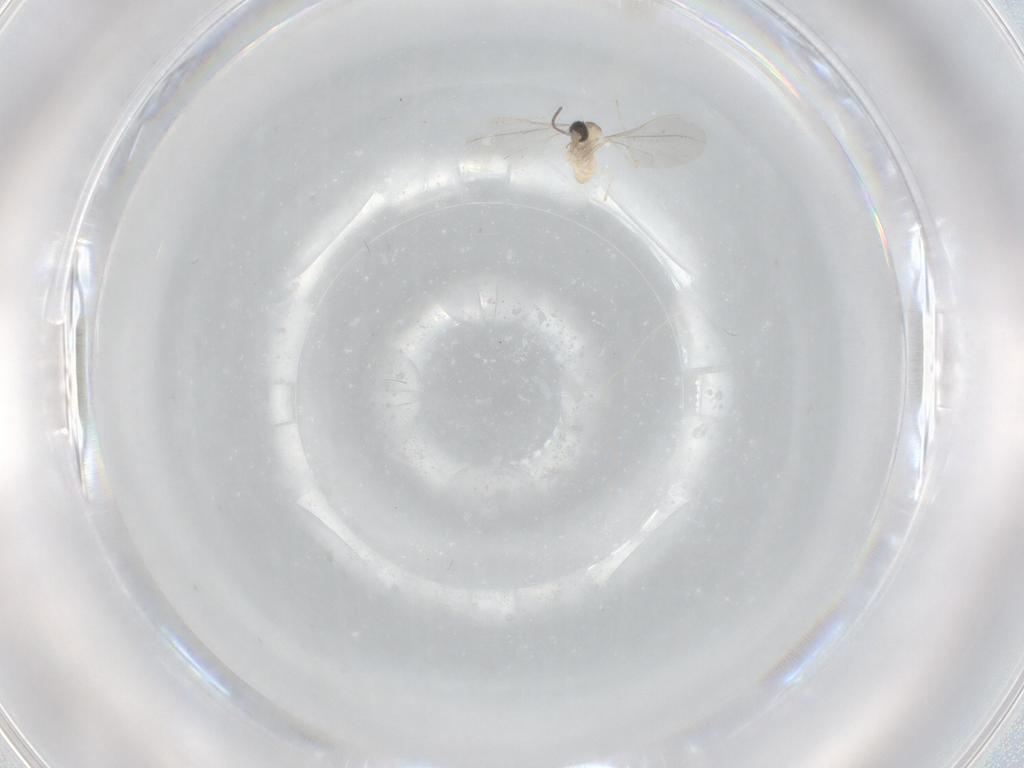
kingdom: Animalia
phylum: Arthropoda
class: Insecta
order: Diptera
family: Cecidomyiidae
